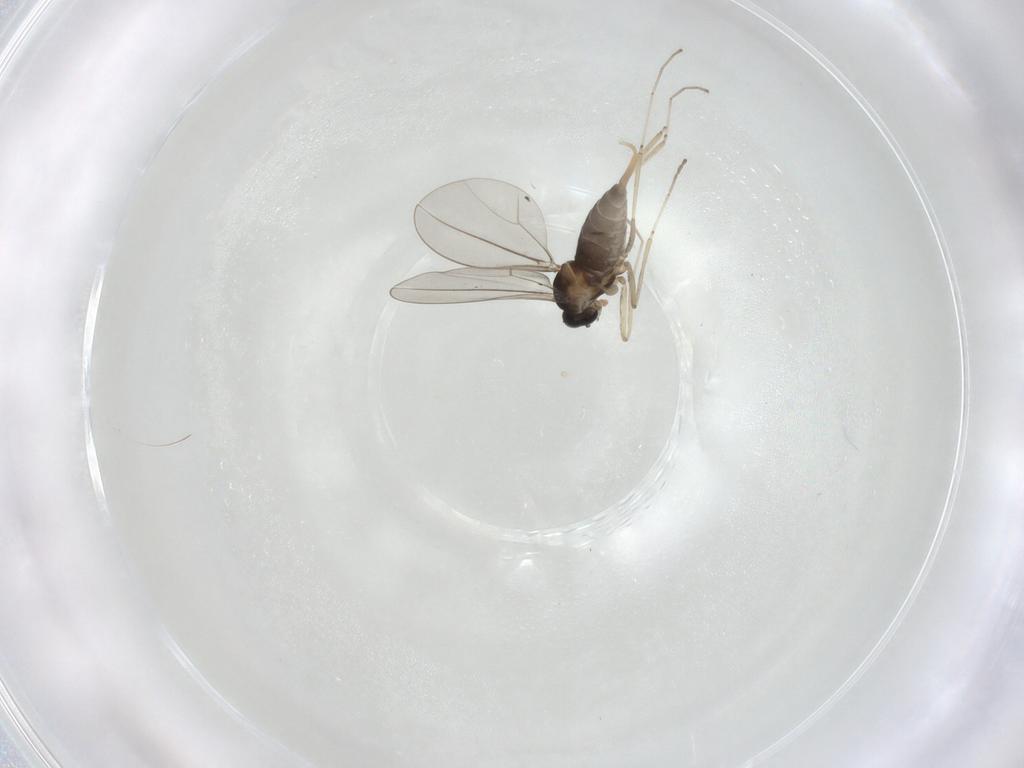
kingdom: Animalia
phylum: Arthropoda
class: Insecta
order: Diptera
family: Cecidomyiidae
